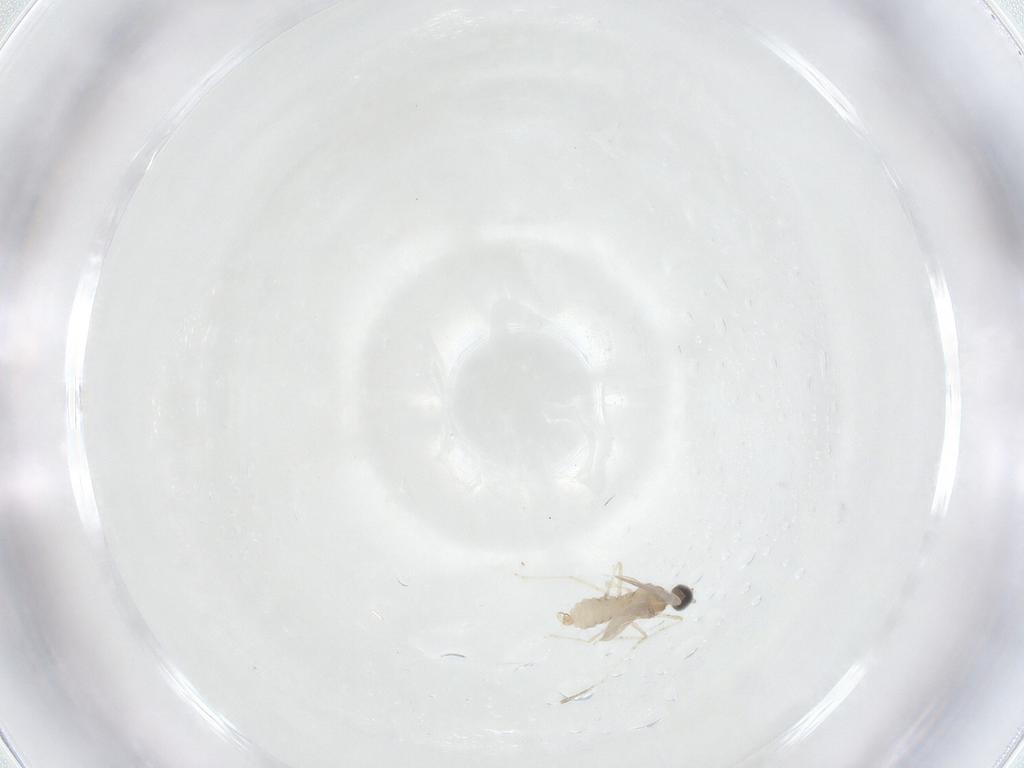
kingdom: Animalia
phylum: Arthropoda
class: Insecta
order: Diptera
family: Cecidomyiidae
